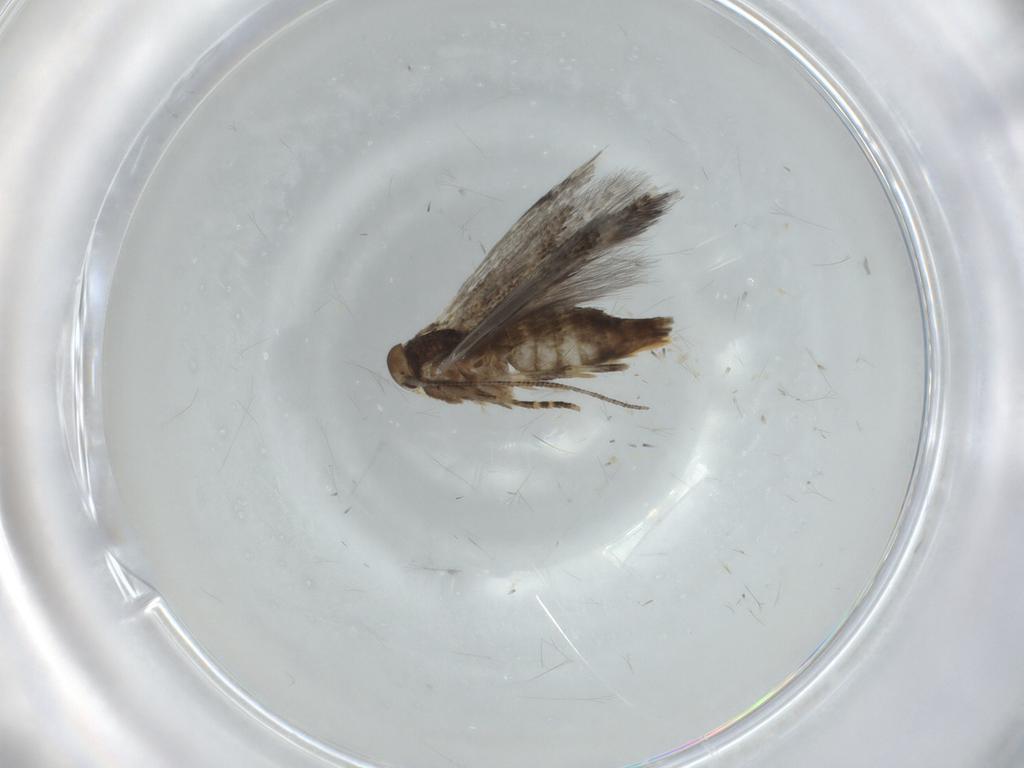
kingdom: Animalia
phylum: Arthropoda
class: Insecta
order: Lepidoptera
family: Elachistidae
